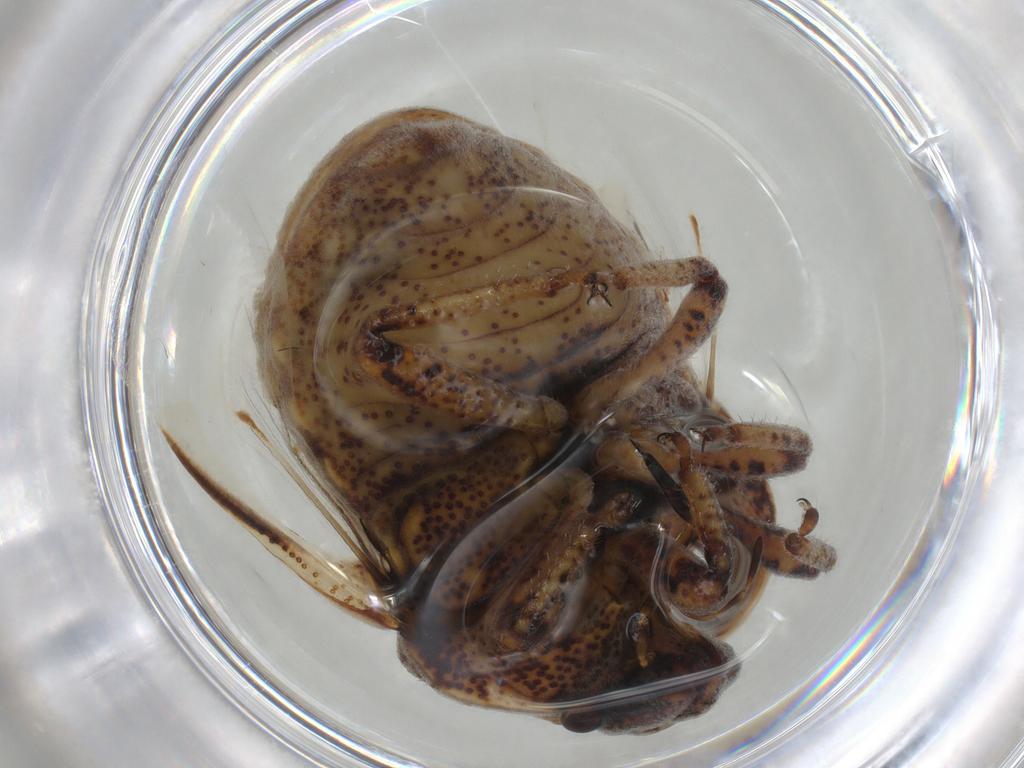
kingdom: Animalia
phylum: Arthropoda
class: Insecta
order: Hemiptera
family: Scutelleridae
